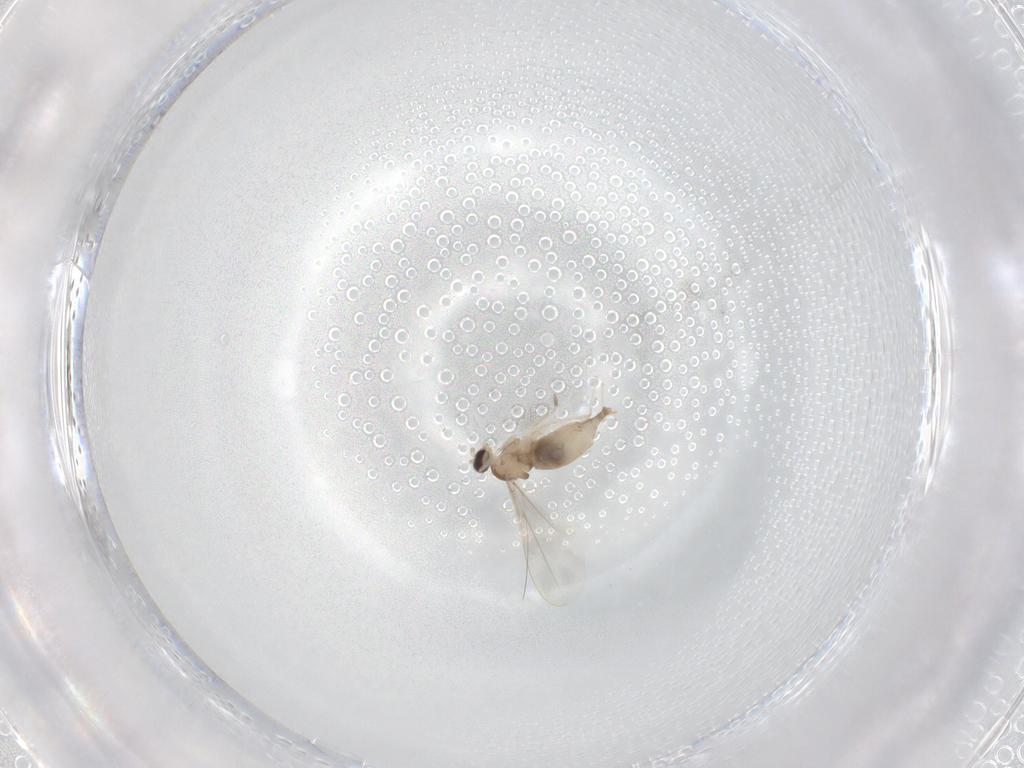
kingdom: Animalia
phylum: Arthropoda
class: Insecta
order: Diptera
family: Cecidomyiidae
